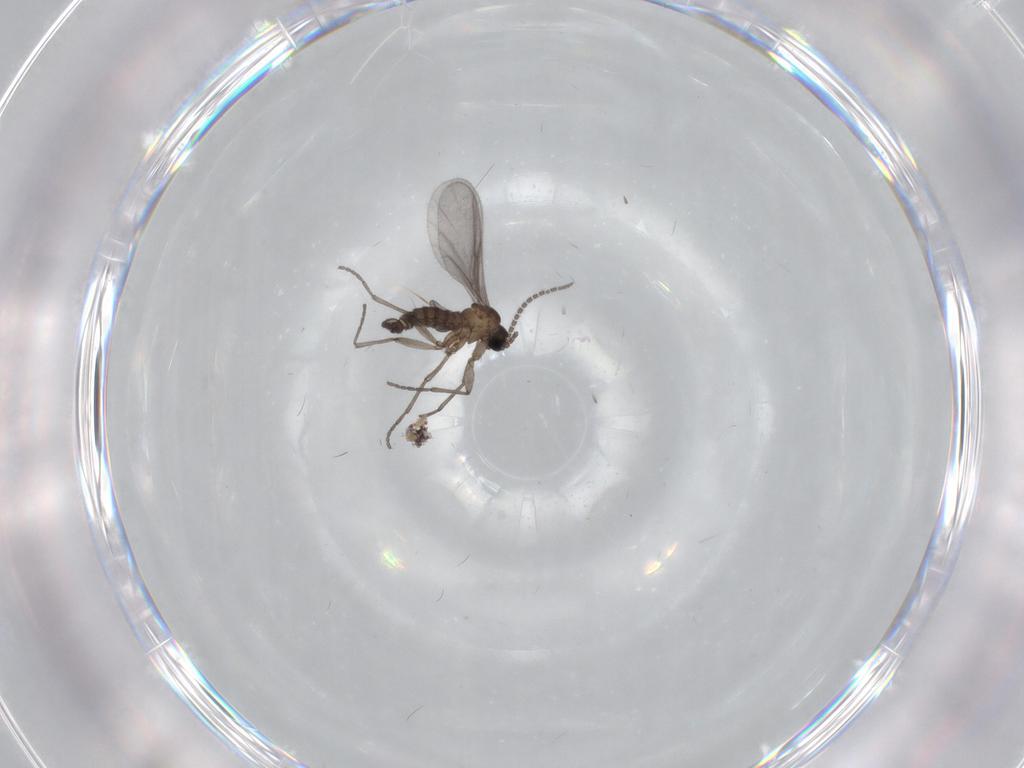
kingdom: Animalia
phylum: Arthropoda
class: Insecta
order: Diptera
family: Sciaridae
